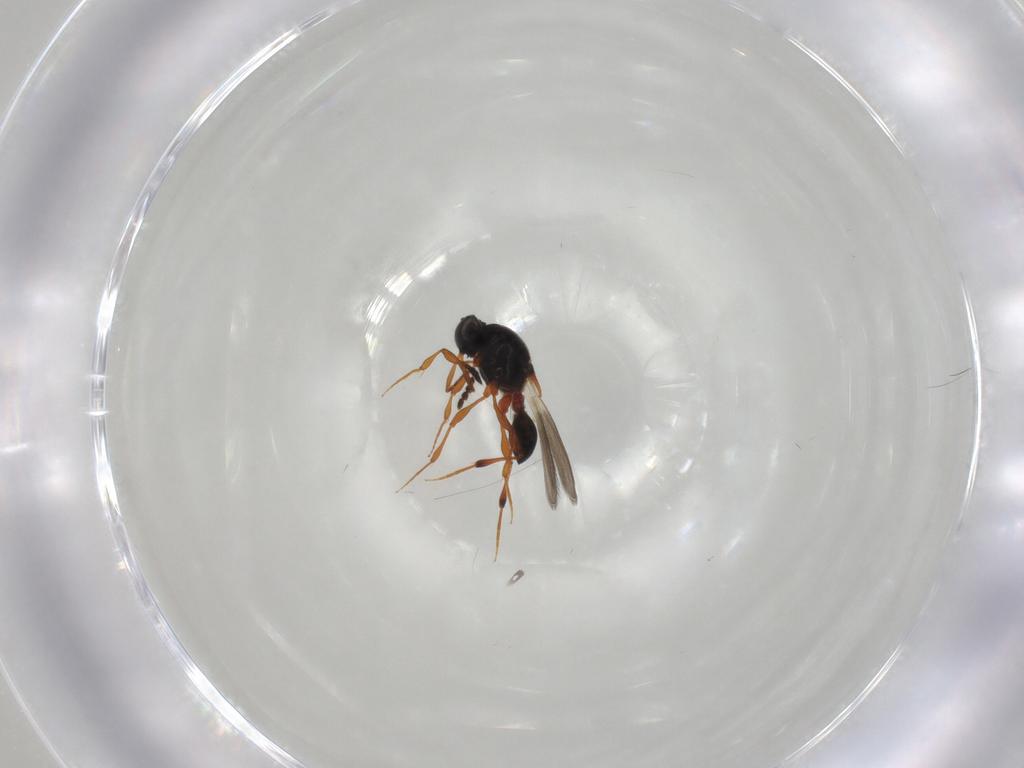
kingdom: Animalia
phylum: Arthropoda
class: Insecta
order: Hymenoptera
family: Platygastridae
